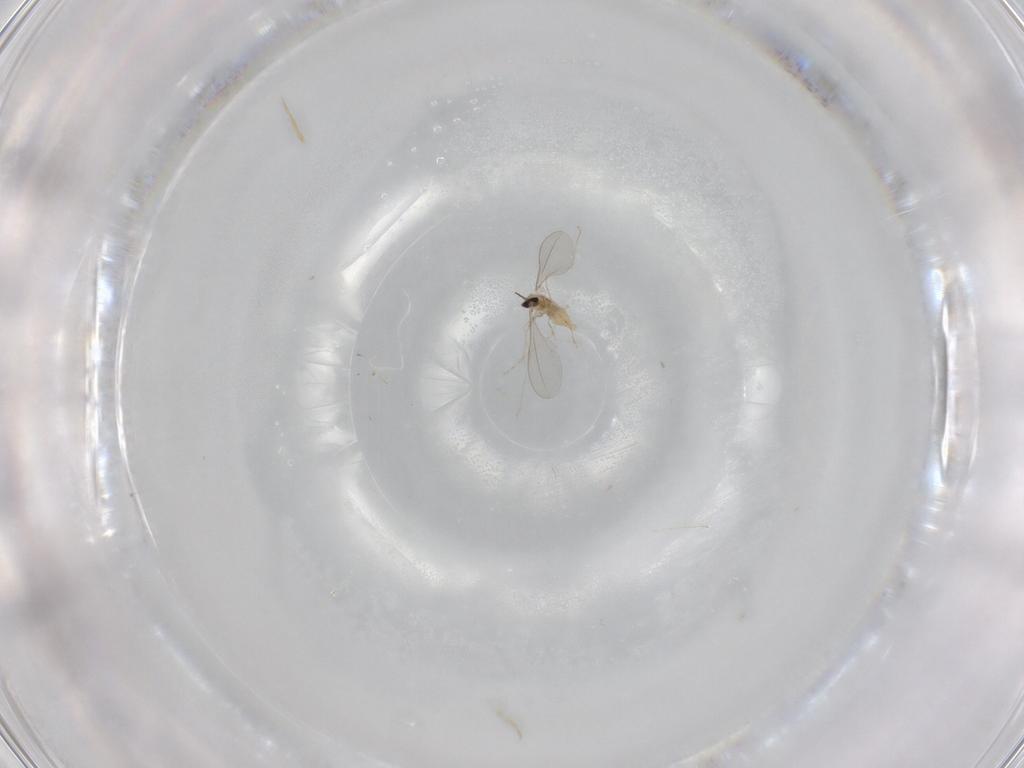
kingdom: Animalia
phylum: Arthropoda
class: Insecta
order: Diptera
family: Cecidomyiidae
